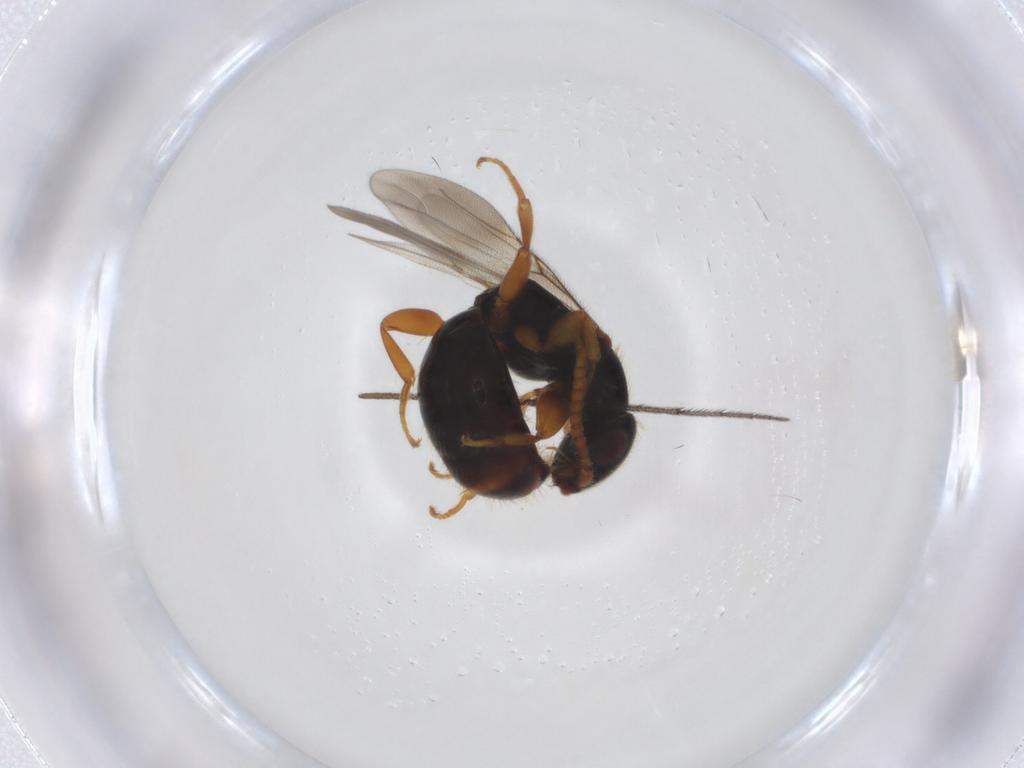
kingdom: Animalia
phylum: Arthropoda
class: Insecta
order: Hymenoptera
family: Bethylidae
